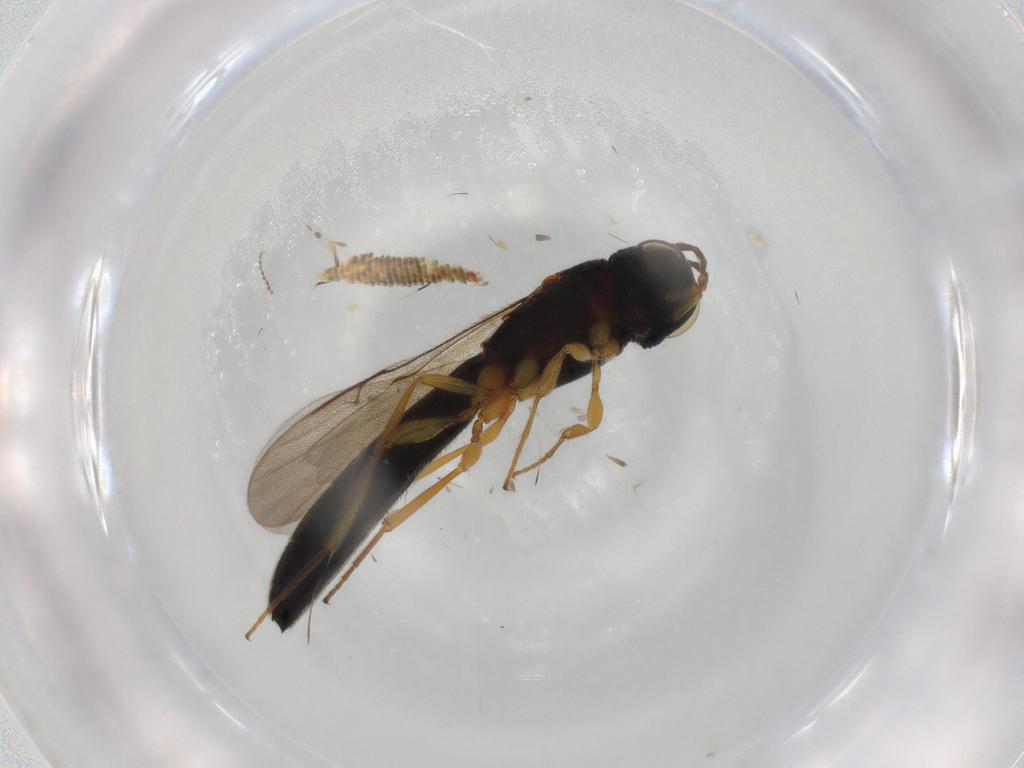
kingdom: Animalia
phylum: Arthropoda
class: Insecta
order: Hymenoptera
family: Scelionidae
